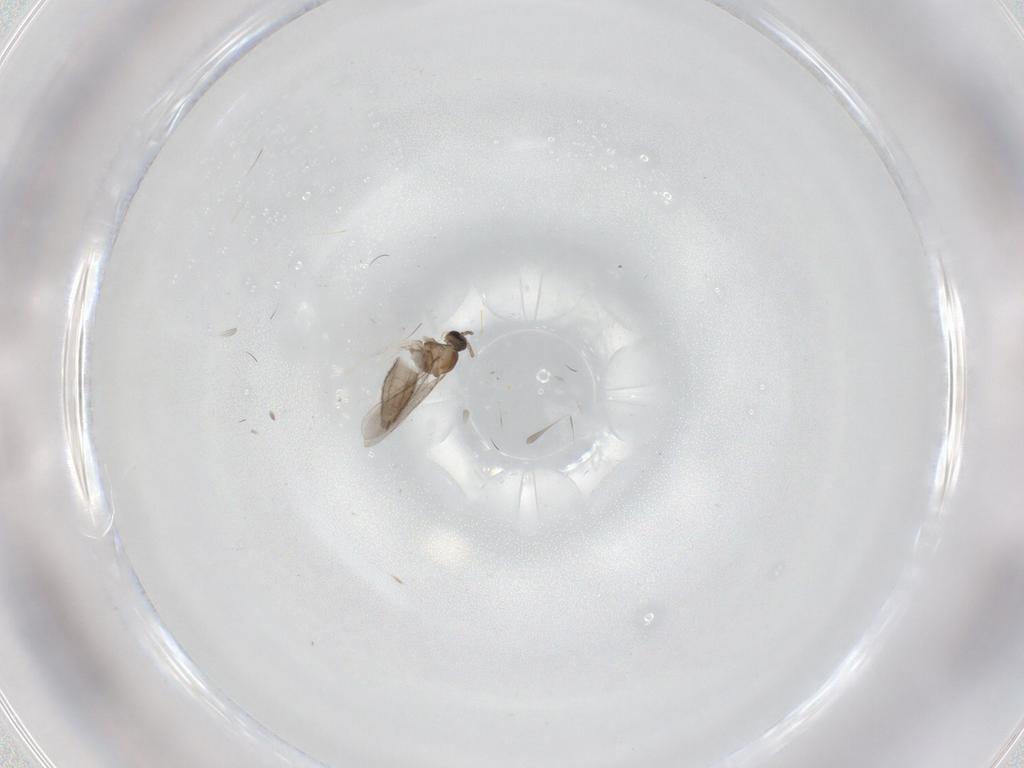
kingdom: Animalia
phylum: Arthropoda
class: Insecta
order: Diptera
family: Cecidomyiidae
